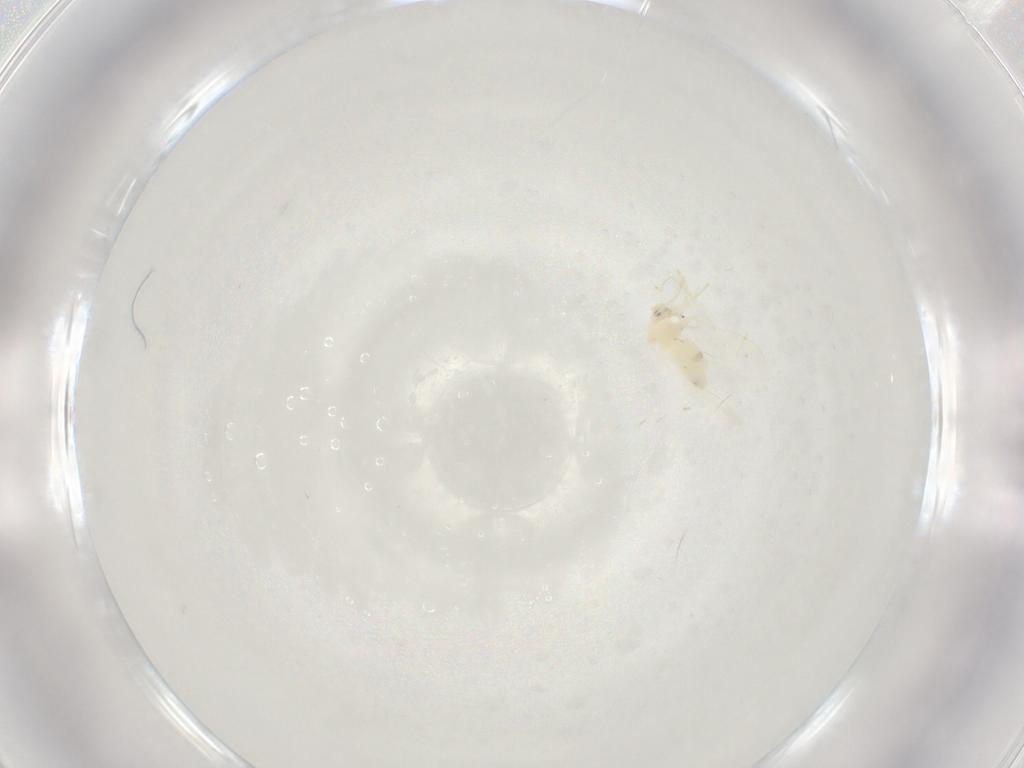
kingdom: Animalia
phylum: Arthropoda
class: Insecta
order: Hemiptera
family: Aleyrodidae
